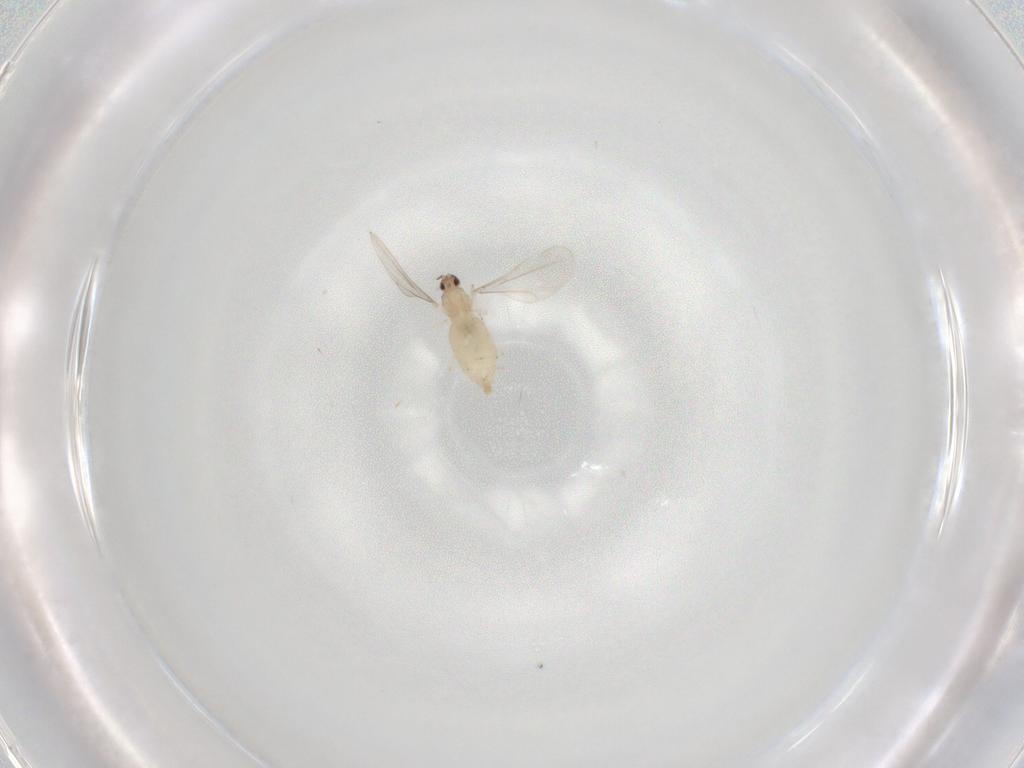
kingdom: Animalia
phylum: Arthropoda
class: Insecta
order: Diptera
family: Cecidomyiidae
